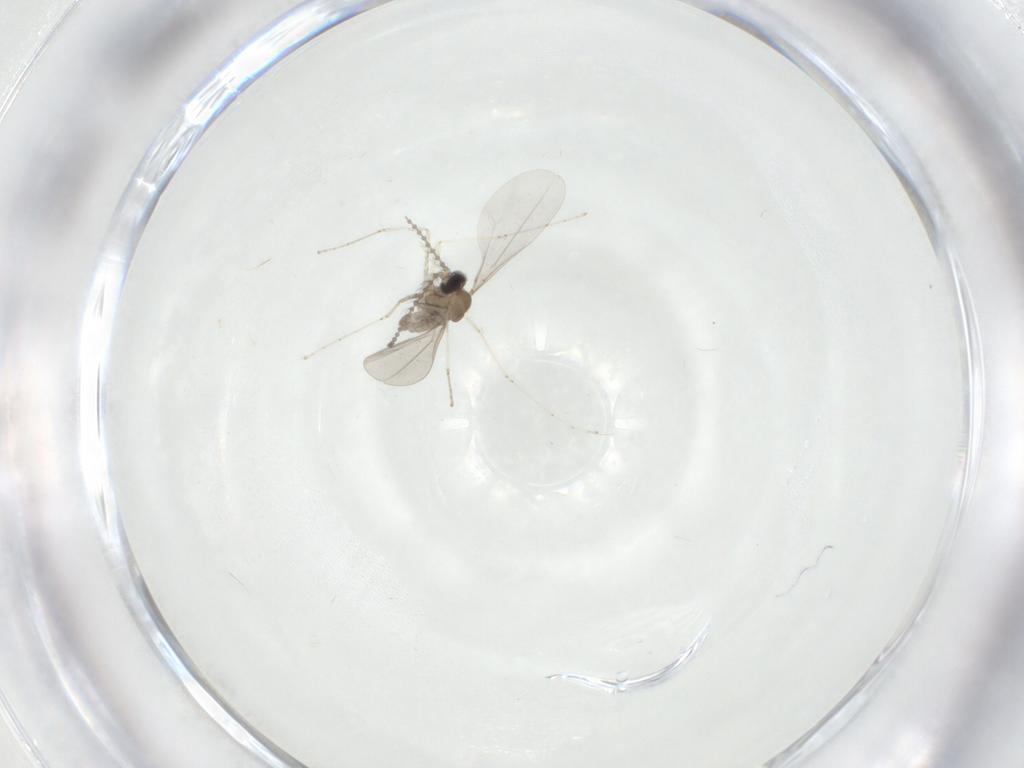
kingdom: Animalia
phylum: Arthropoda
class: Insecta
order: Diptera
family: Cecidomyiidae
